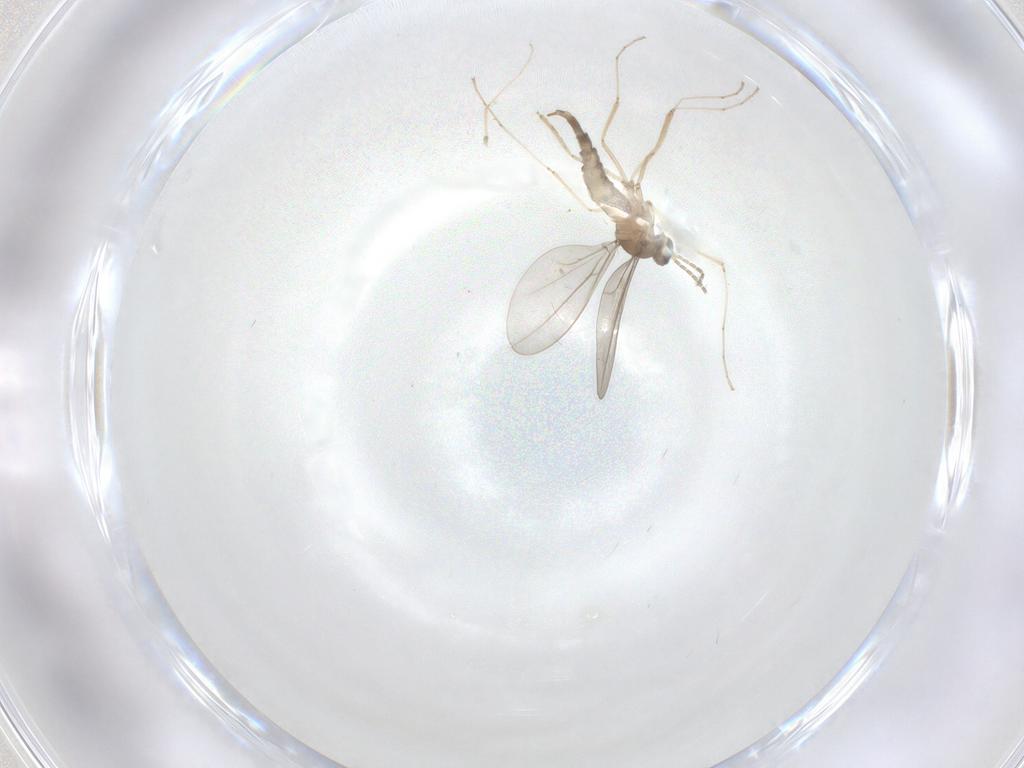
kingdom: Animalia
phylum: Arthropoda
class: Insecta
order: Diptera
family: Cecidomyiidae
